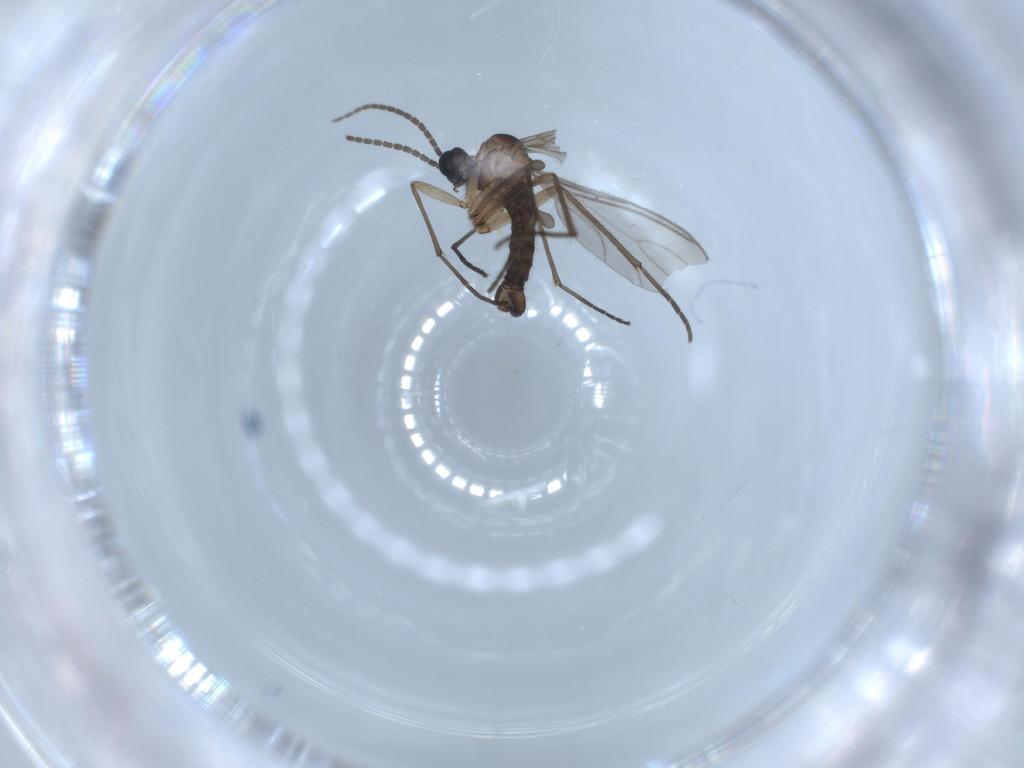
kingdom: Animalia
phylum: Arthropoda
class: Insecta
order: Diptera
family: Sciaridae
